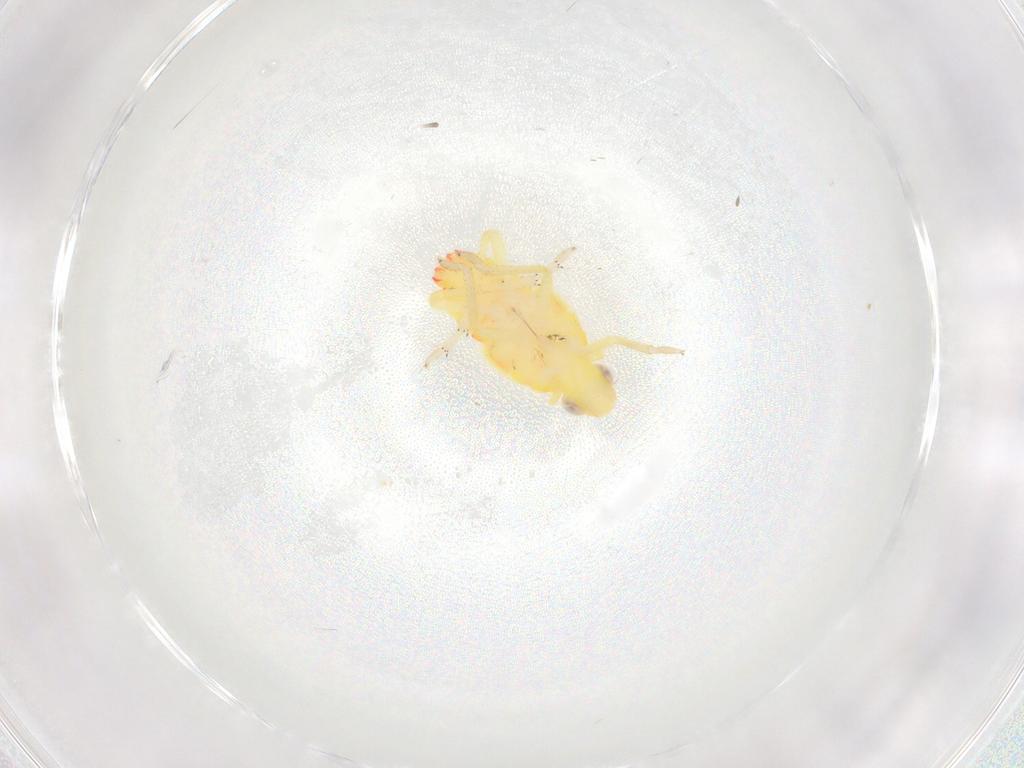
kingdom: Animalia
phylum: Arthropoda
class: Insecta
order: Hemiptera
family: Tropiduchidae
